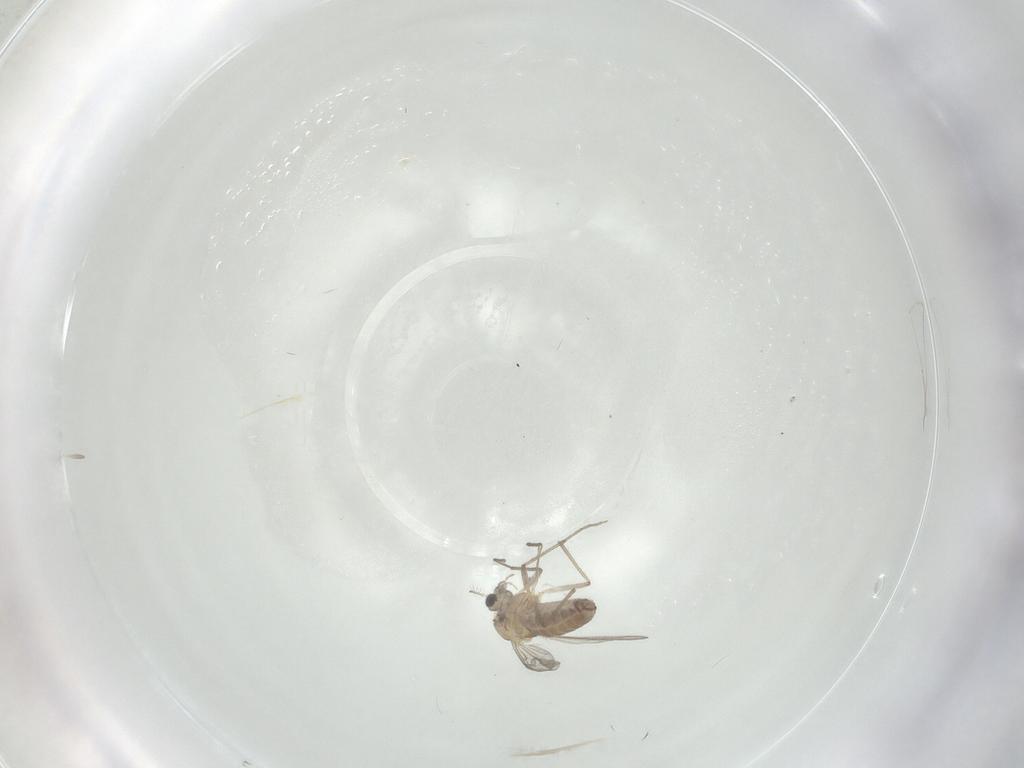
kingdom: Animalia
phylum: Arthropoda
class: Insecta
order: Diptera
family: Chironomidae
